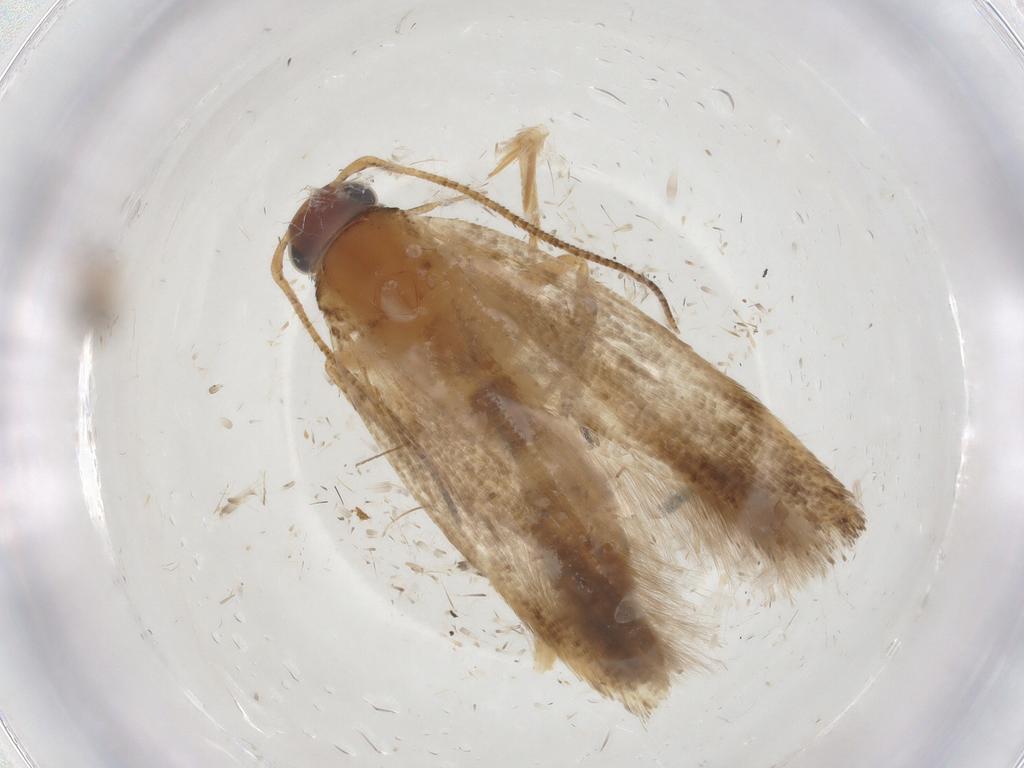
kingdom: Animalia
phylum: Arthropoda
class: Insecta
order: Lepidoptera
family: Gelechiidae
